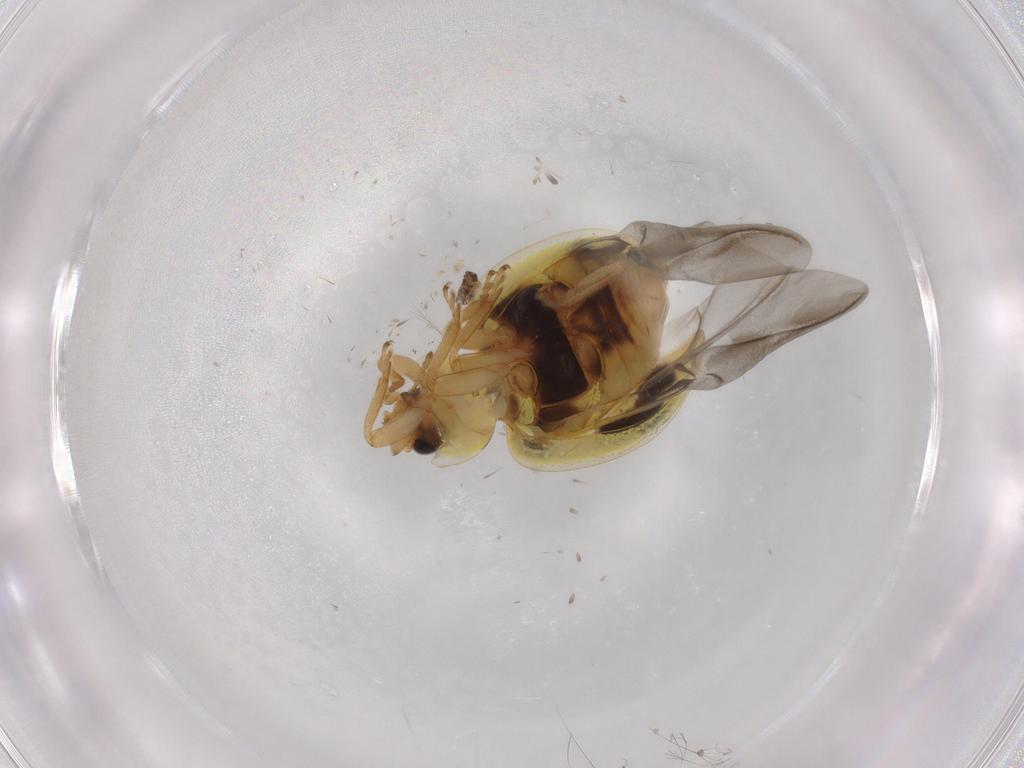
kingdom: Animalia
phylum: Arthropoda
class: Insecta
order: Coleoptera
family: Coccinellidae
